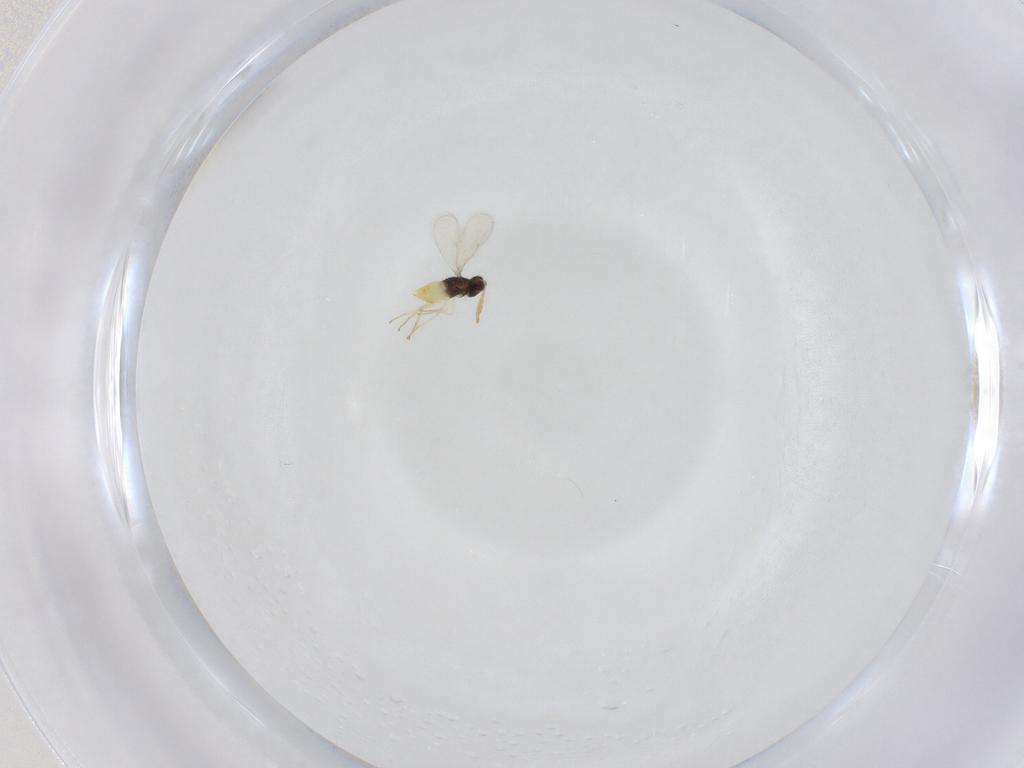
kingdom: Animalia
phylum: Arthropoda
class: Insecta
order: Hymenoptera
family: Aphelinidae
